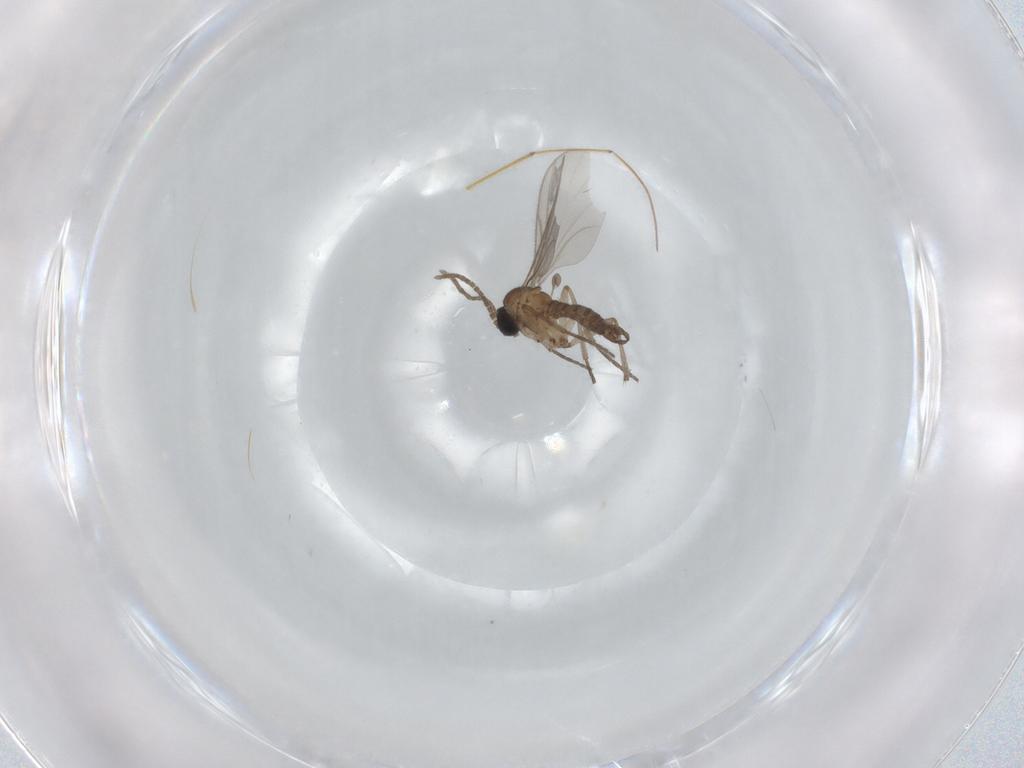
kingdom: Animalia
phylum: Arthropoda
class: Insecta
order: Diptera
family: Sciaridae
